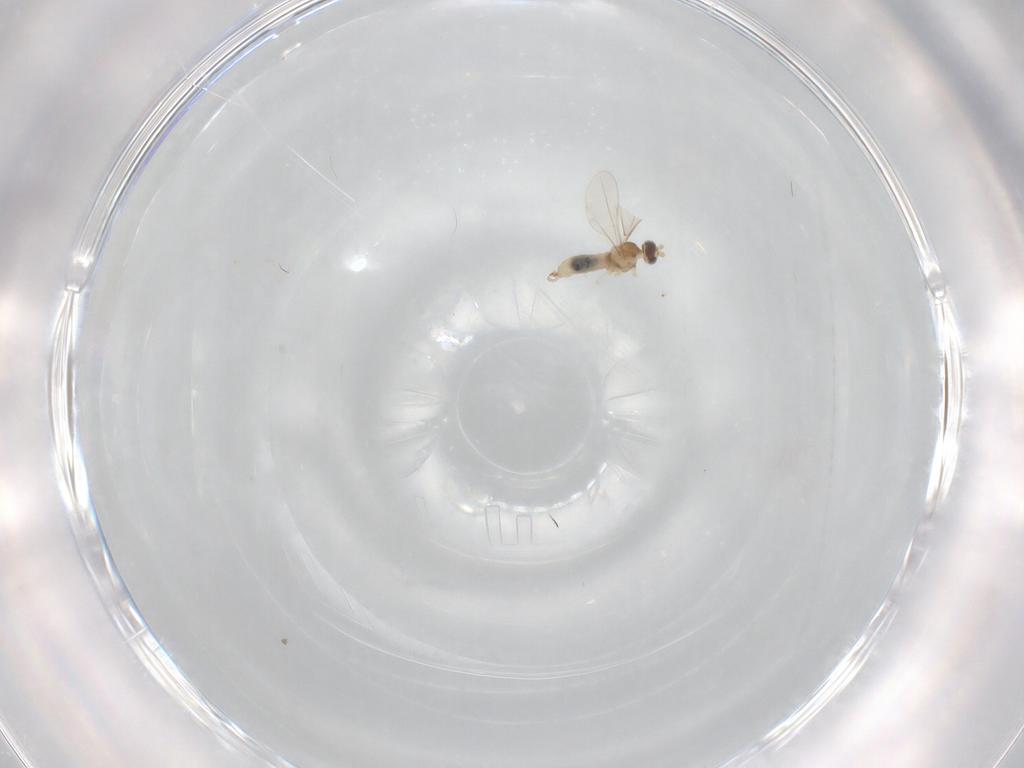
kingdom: Animalia
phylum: Arthropoda
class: Insecta
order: Diptera
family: Cecidomyiidae
